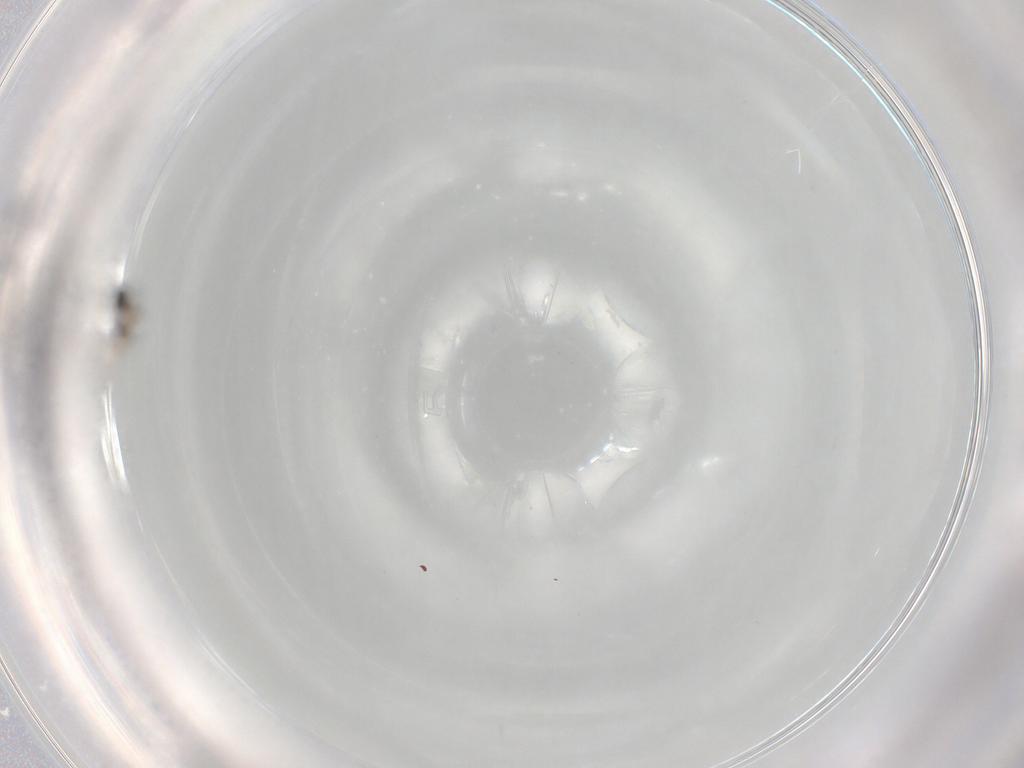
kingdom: Animalia
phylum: Arthropoda
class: Insecta
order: Diptera
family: Cecidomyiidae
